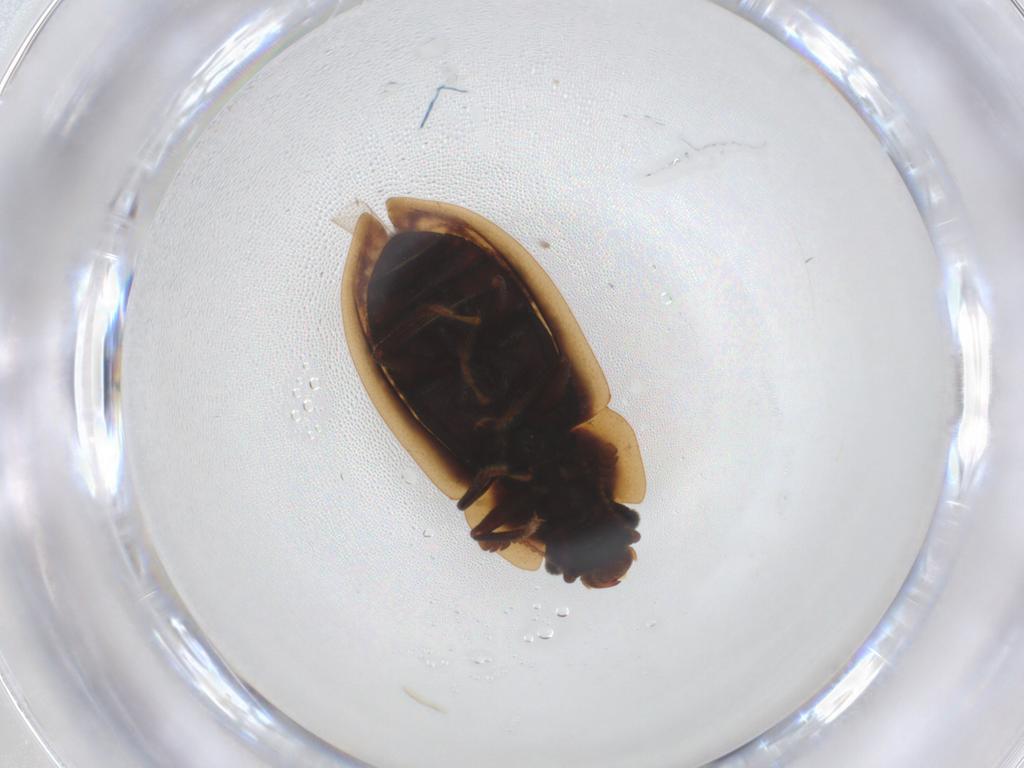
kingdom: Animalia
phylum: Arthropoda
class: Insecta
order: Coleoptera
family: Nitidulidae
